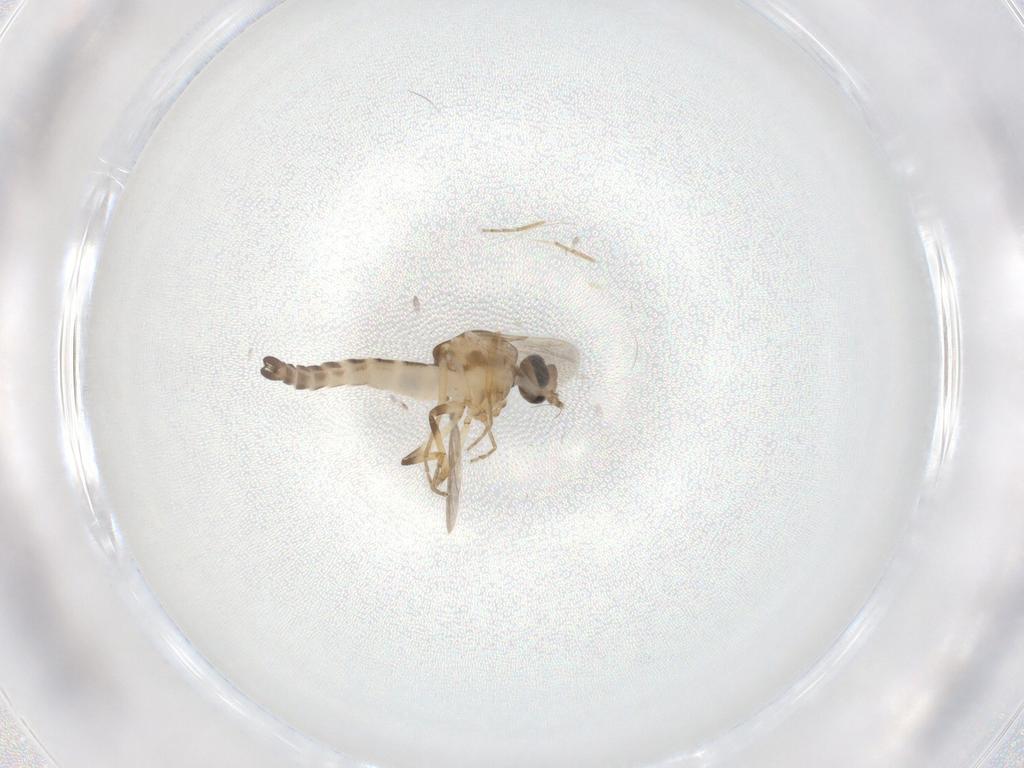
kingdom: Animalia
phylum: Arthropoda
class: Insecta
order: Diptera
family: Ceratopogonidae
